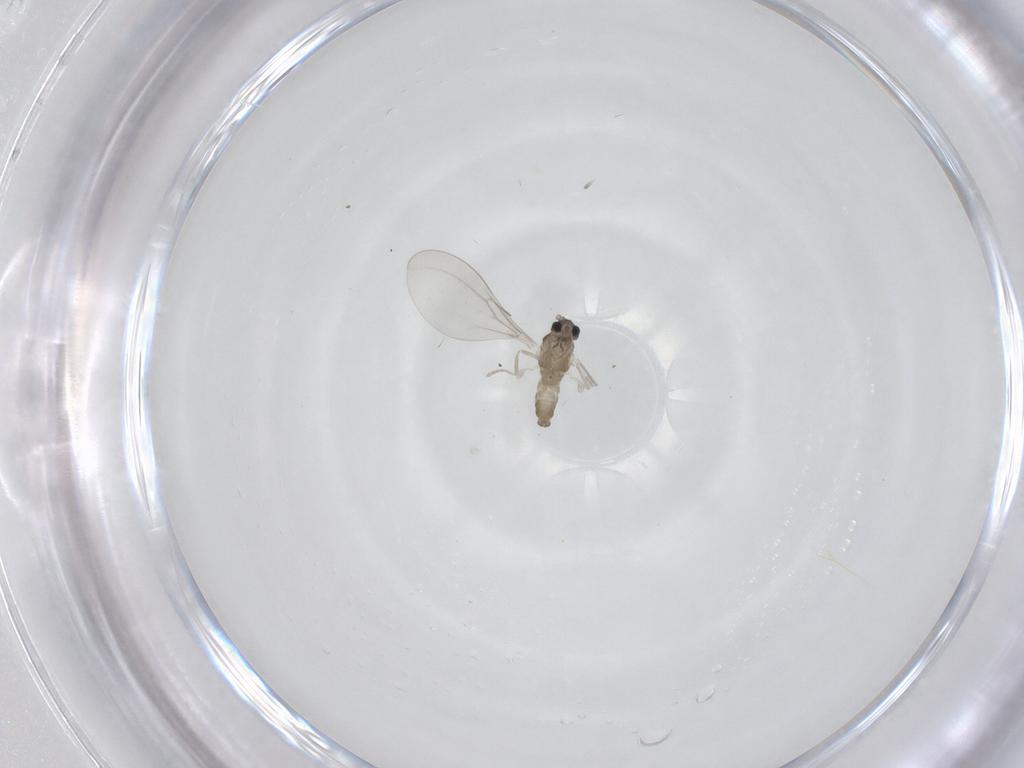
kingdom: Animalia
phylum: Arthropoda
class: Insecta
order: Diptera
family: Cecidomyiidae
